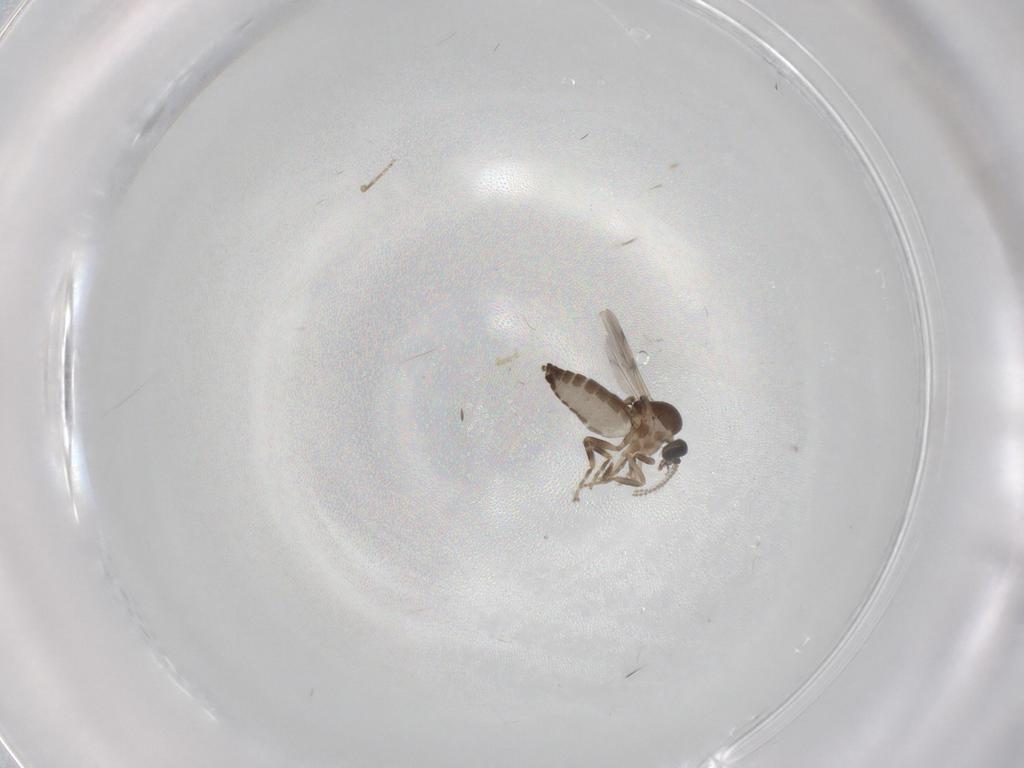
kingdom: Animalia
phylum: Arthropoda
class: Insecta
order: Diptera
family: Ceratopogonidae
